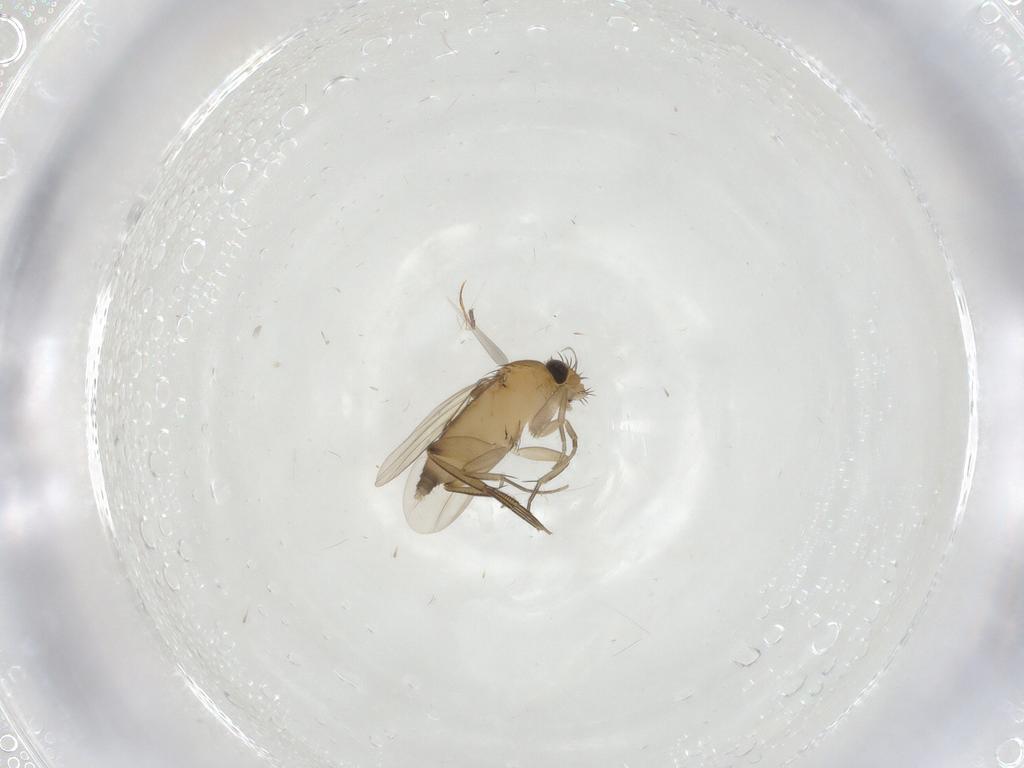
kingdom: Animalia
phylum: Arthropoda
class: Insecta
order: Diptera
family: Phoridae
